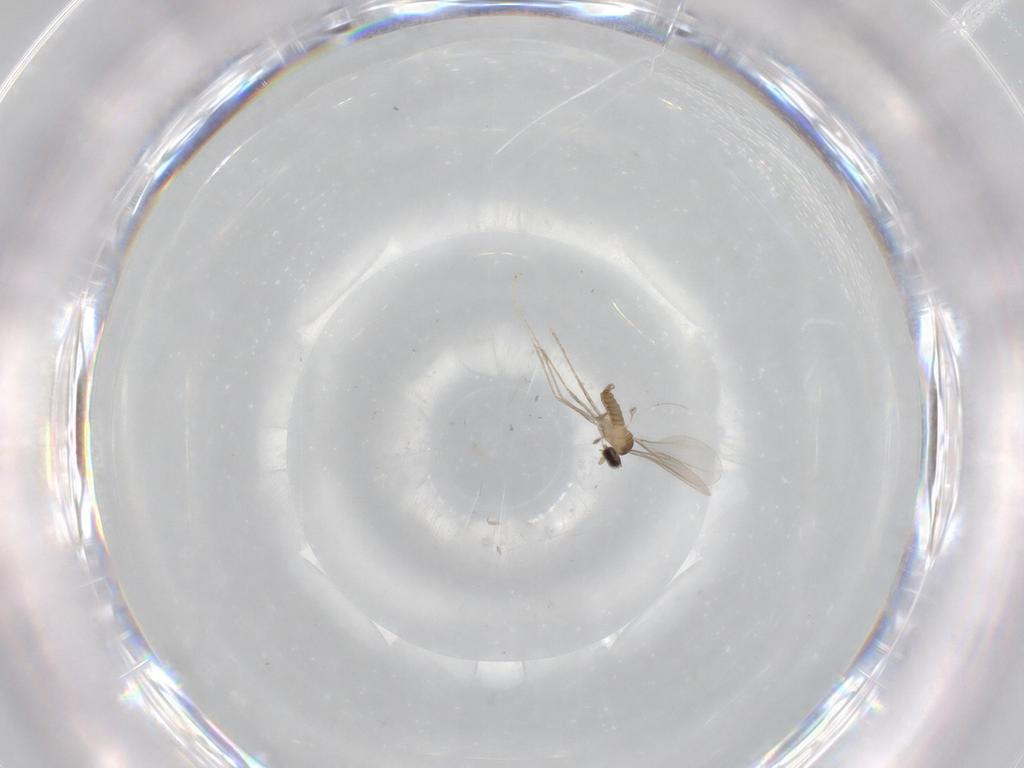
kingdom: Animalia
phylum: Arthropoda
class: Insecta
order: Diptera
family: Cecidomyiidae
